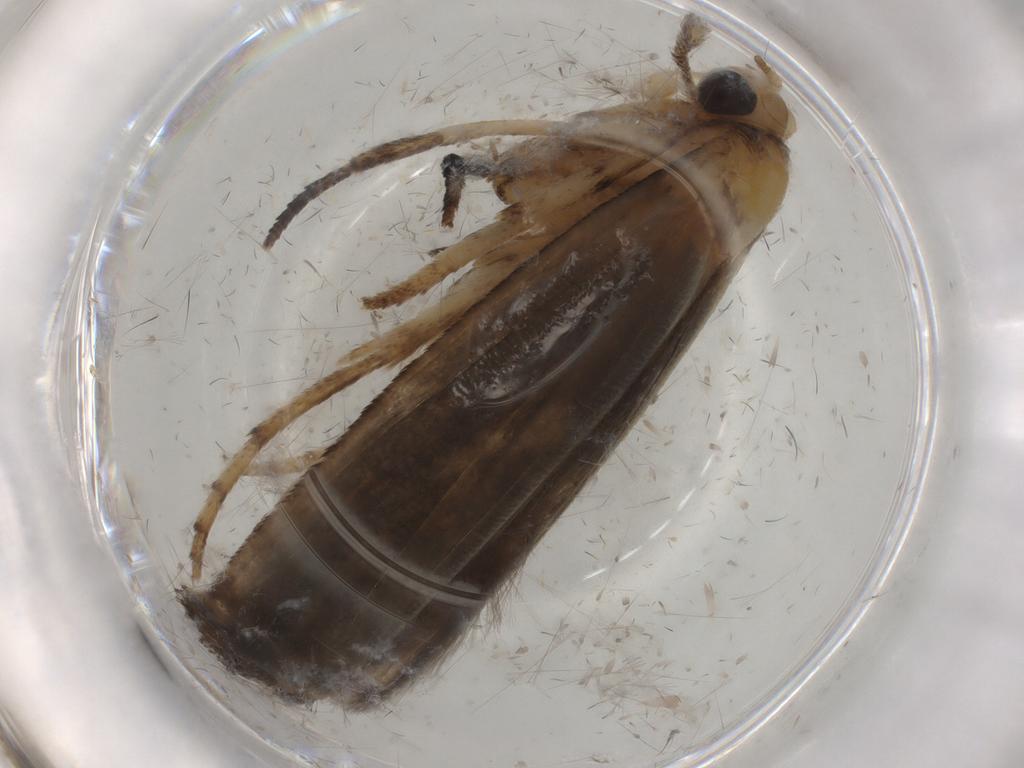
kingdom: Animalia
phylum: Arthropoda
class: Insecta
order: Lepidoptera
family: Yponomeutidae
